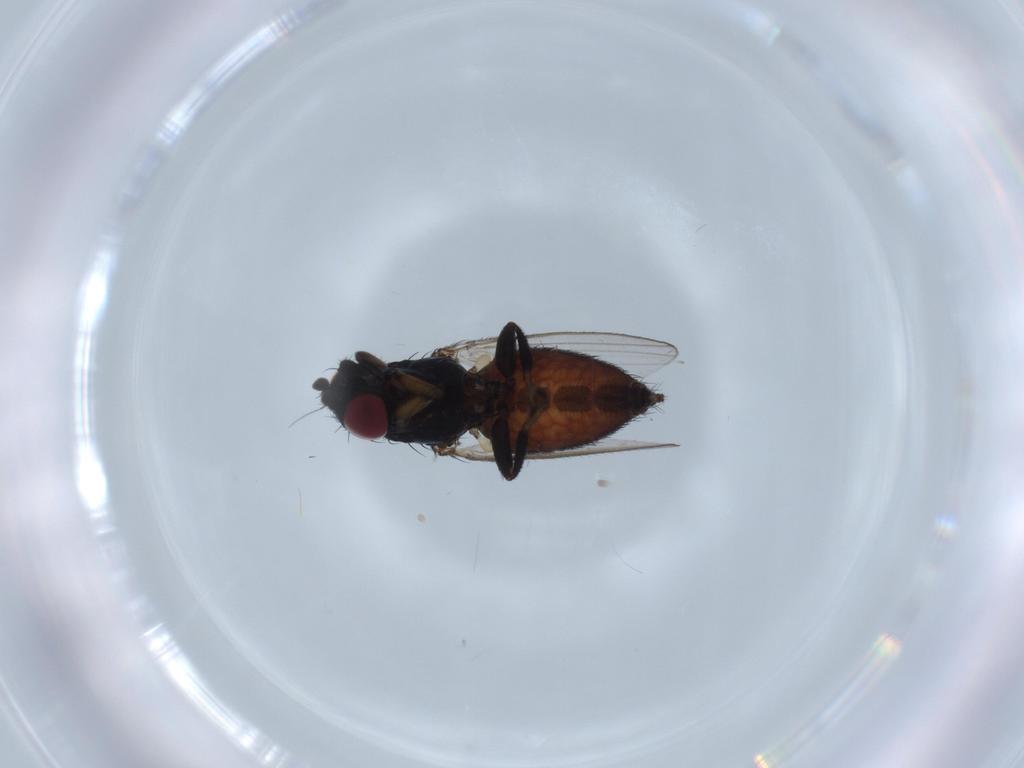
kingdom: Animalia
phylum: Arthropoda
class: Insecta
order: Diptera
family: Milichiidae
